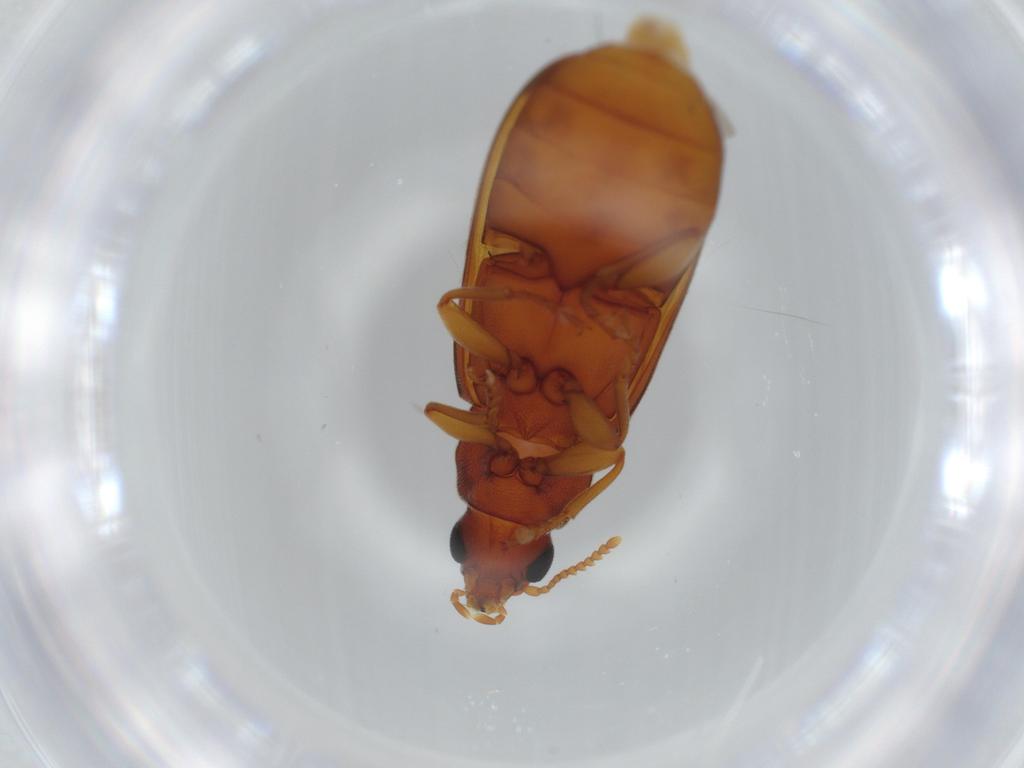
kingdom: Animalia
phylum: Arthropoda
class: Insecta
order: Coleoptera
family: Mycteridae
